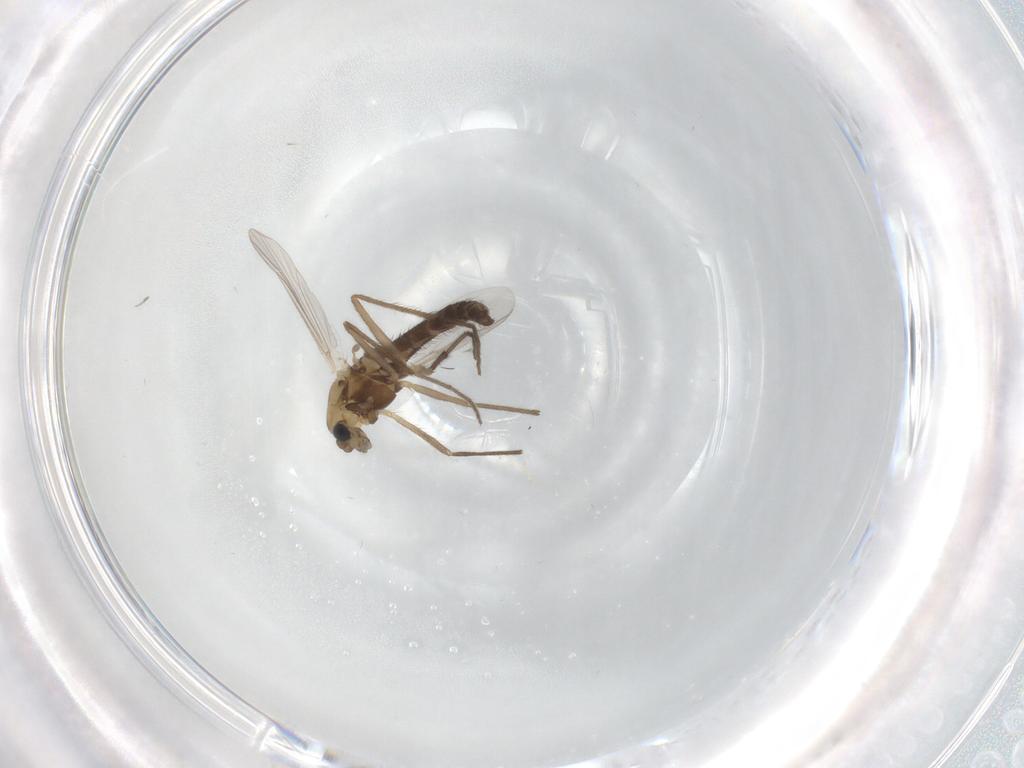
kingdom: Animalia
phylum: Arthropoda
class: Insecta
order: Diptera
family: Chironomidae
